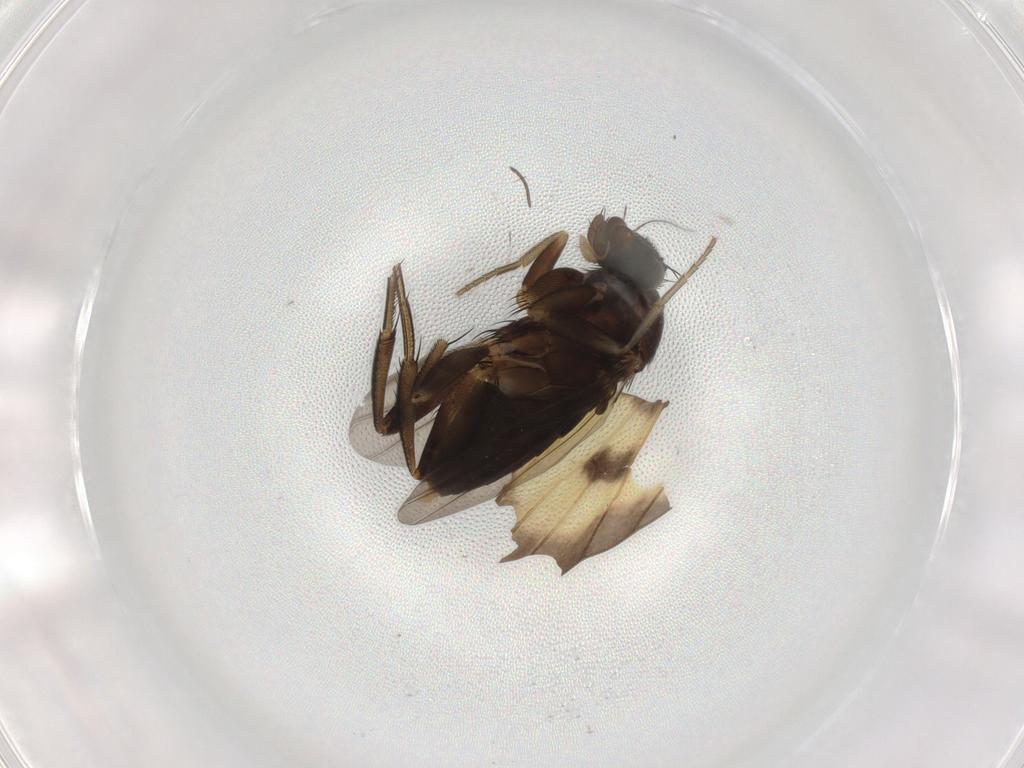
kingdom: Animalia
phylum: Arthropoda
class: Insecta
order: Diptera
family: Phoridae
